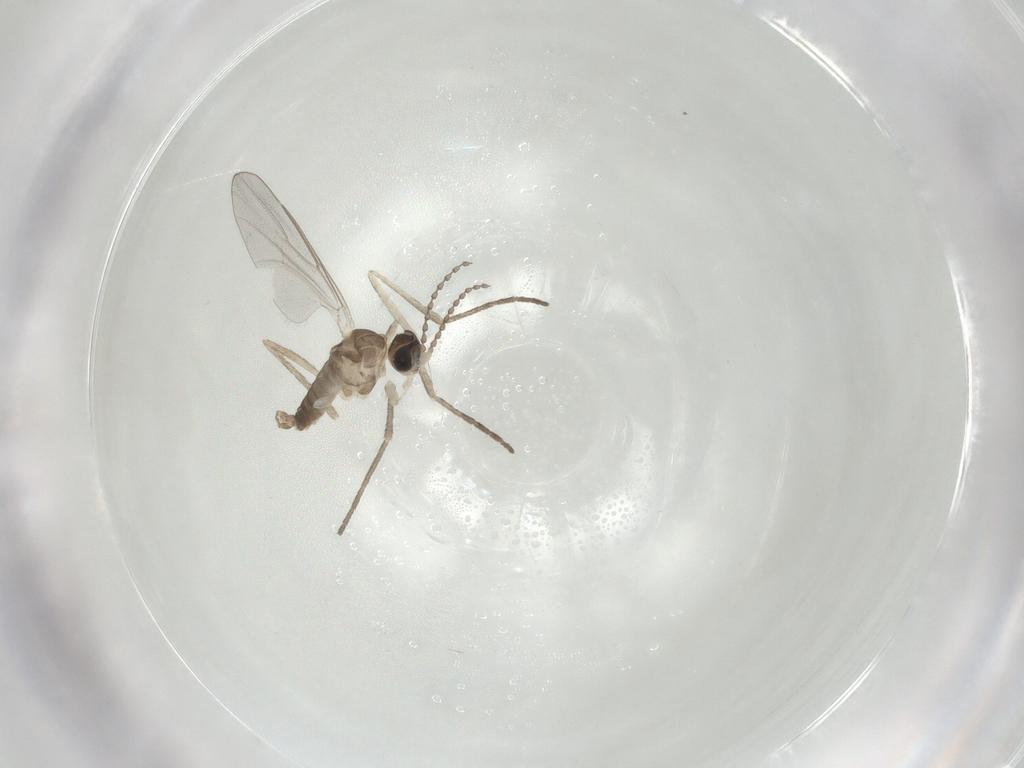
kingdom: Animalia
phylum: Arthropoda
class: Insecta
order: Diptera
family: Cecidomyiidae
